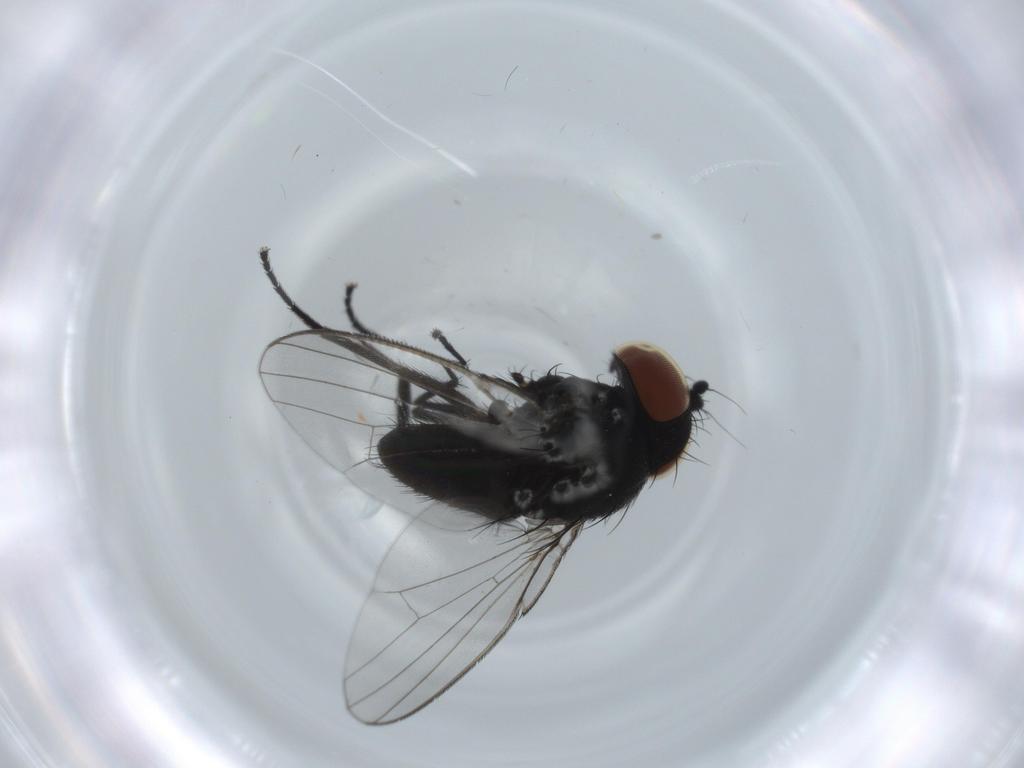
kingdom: Animalia
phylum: Arthropoda
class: Insecta
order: Diptera
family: Milichiidae
